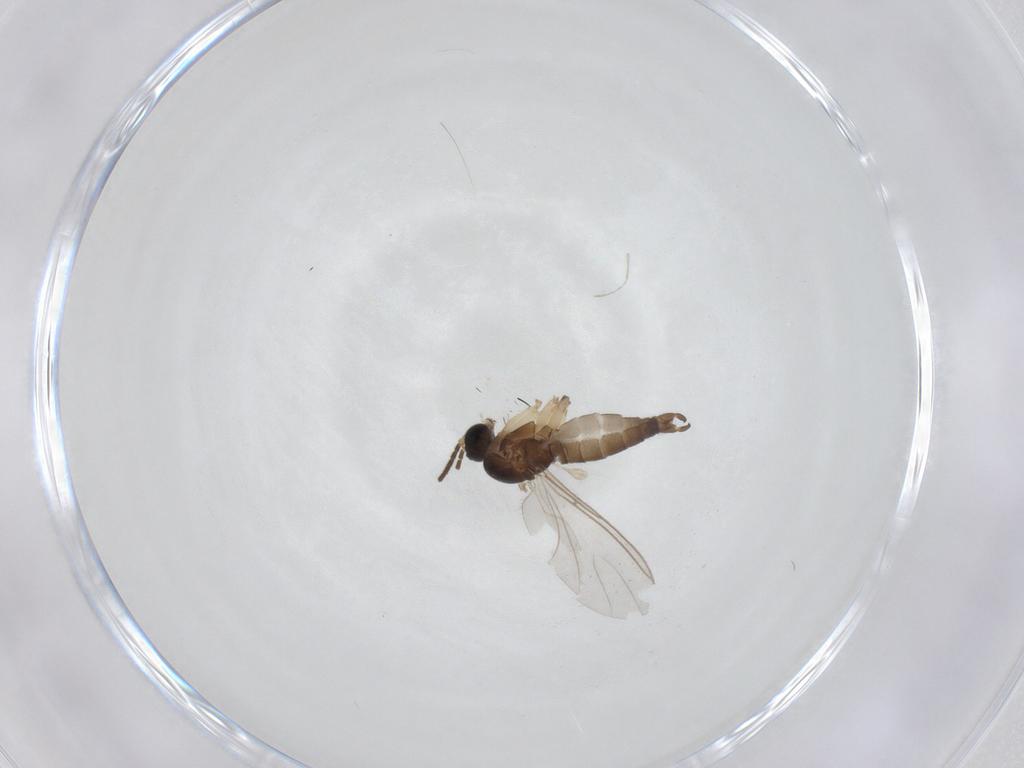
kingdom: Animalia
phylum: Arthropoda
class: Insecta
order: Diptera
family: Sciaridae
